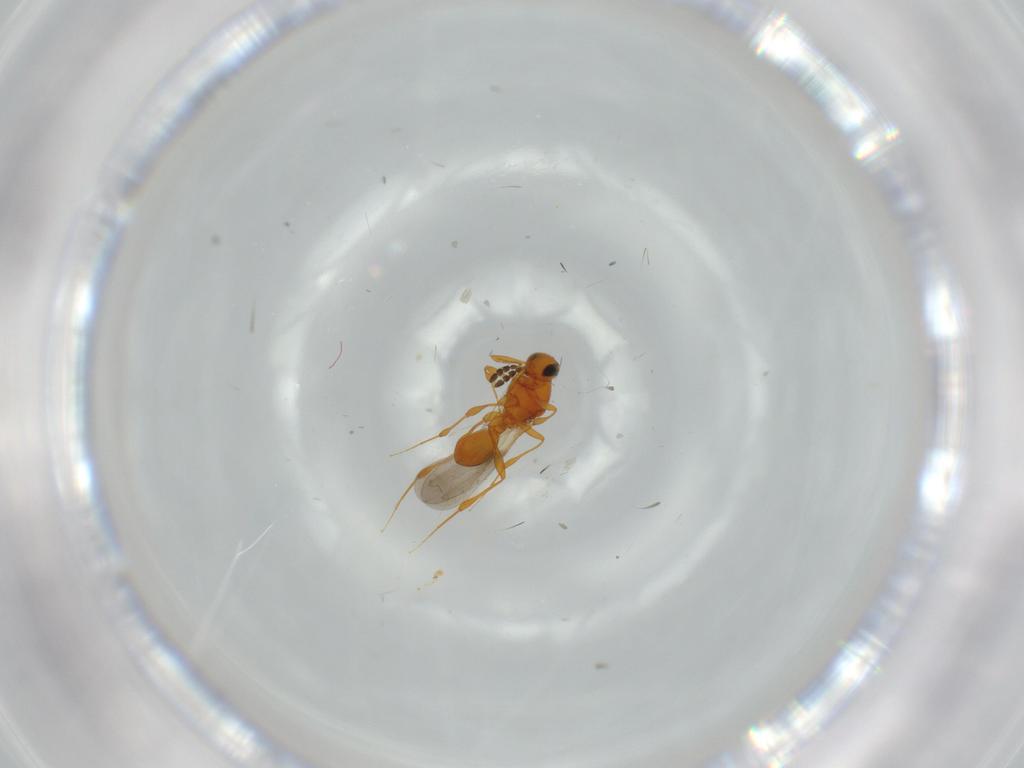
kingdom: Animalia
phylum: Arthropoda
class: Insecta
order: Hymenoptera
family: Platygastridae
